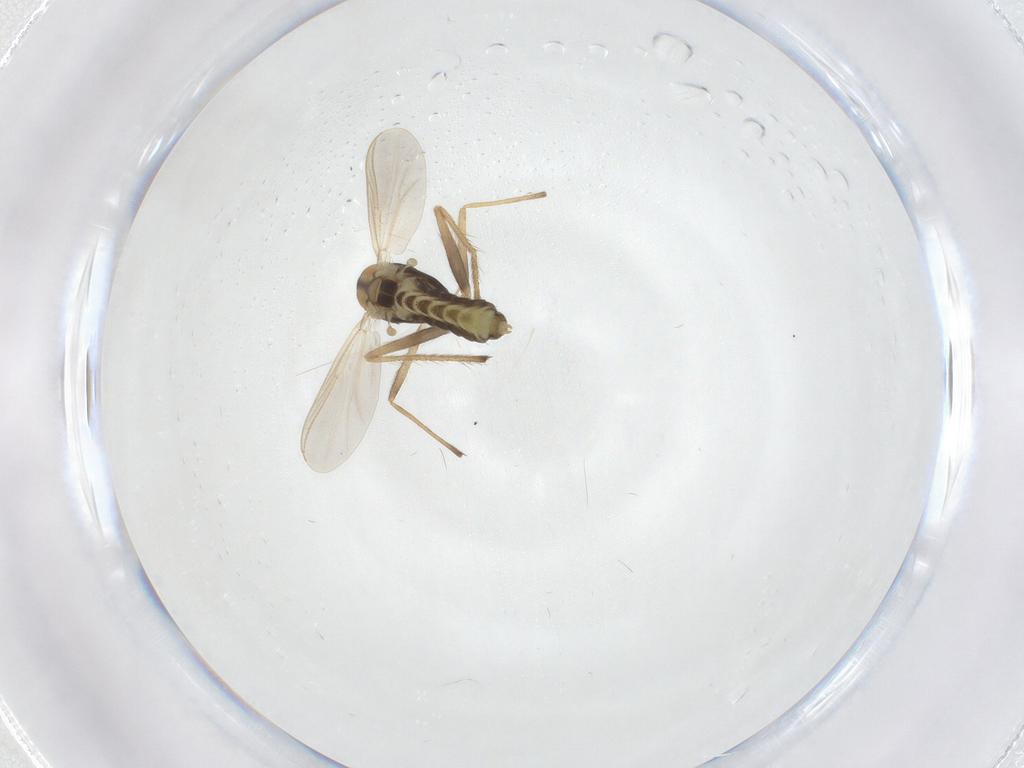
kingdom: Animalia
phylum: Arthropoda
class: Insecta
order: Diptera
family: Chironomidae
